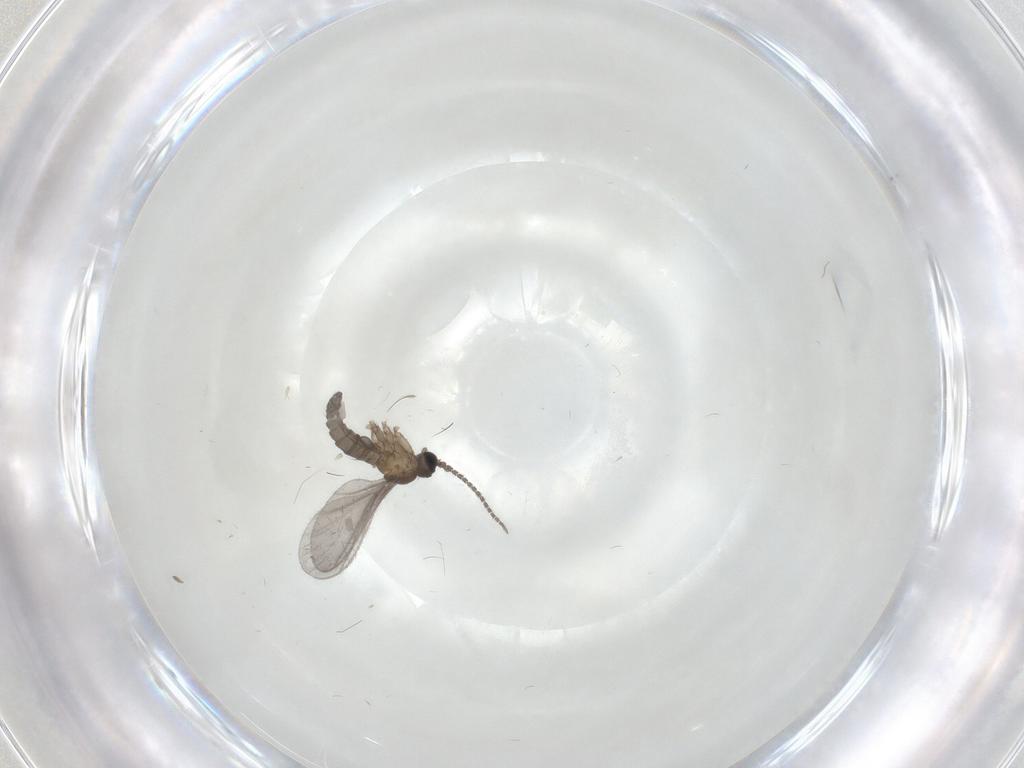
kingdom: Animalia
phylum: Arthropoda
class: Insecta
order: Diptera
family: Sciaridae
